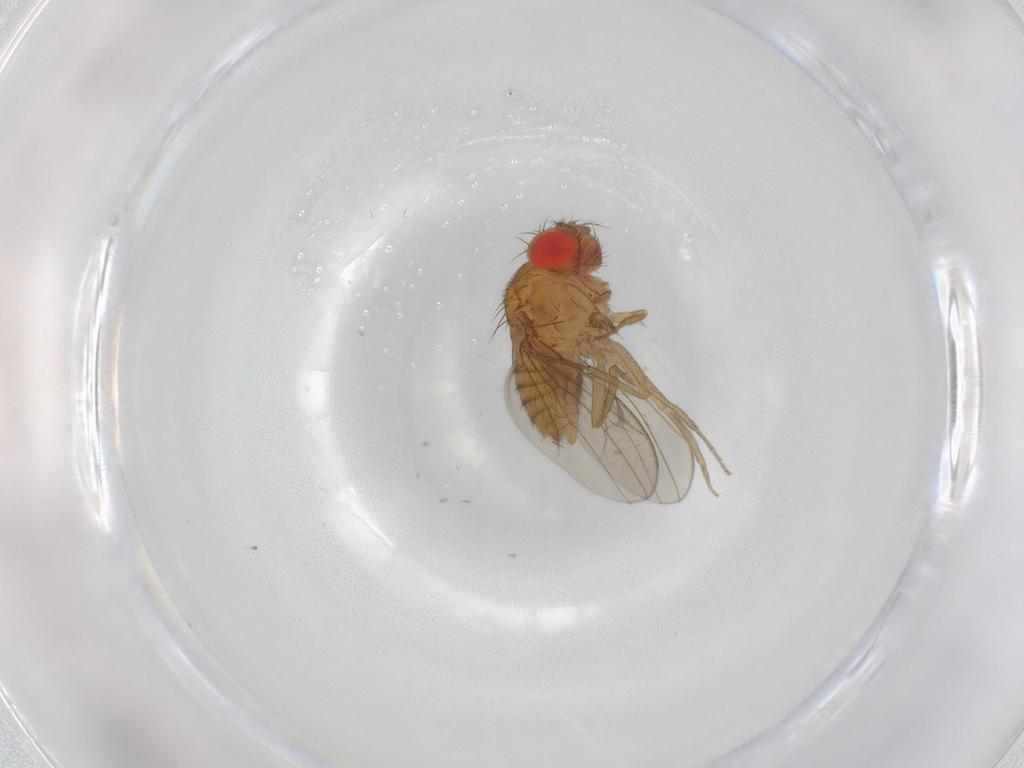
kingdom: Animalia
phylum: Arthropoda
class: Insecta
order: Diptera
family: Drosophilidae
